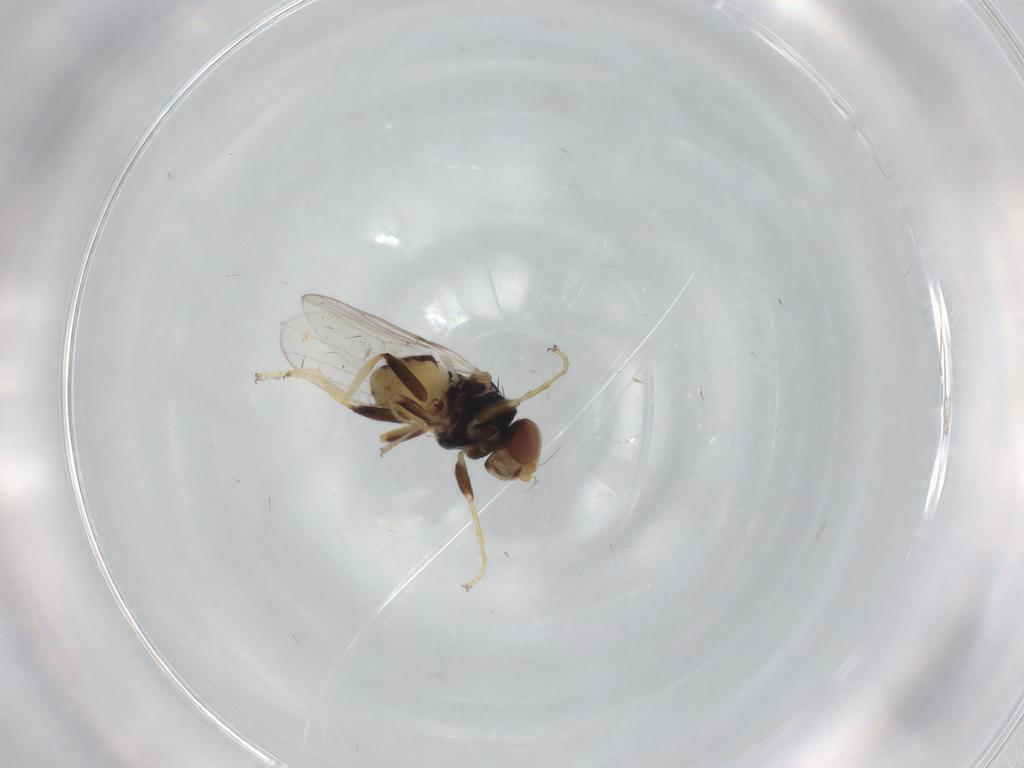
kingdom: Animalia
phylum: Arthropoda
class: Insecta
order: Diptera
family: Chloropidae
